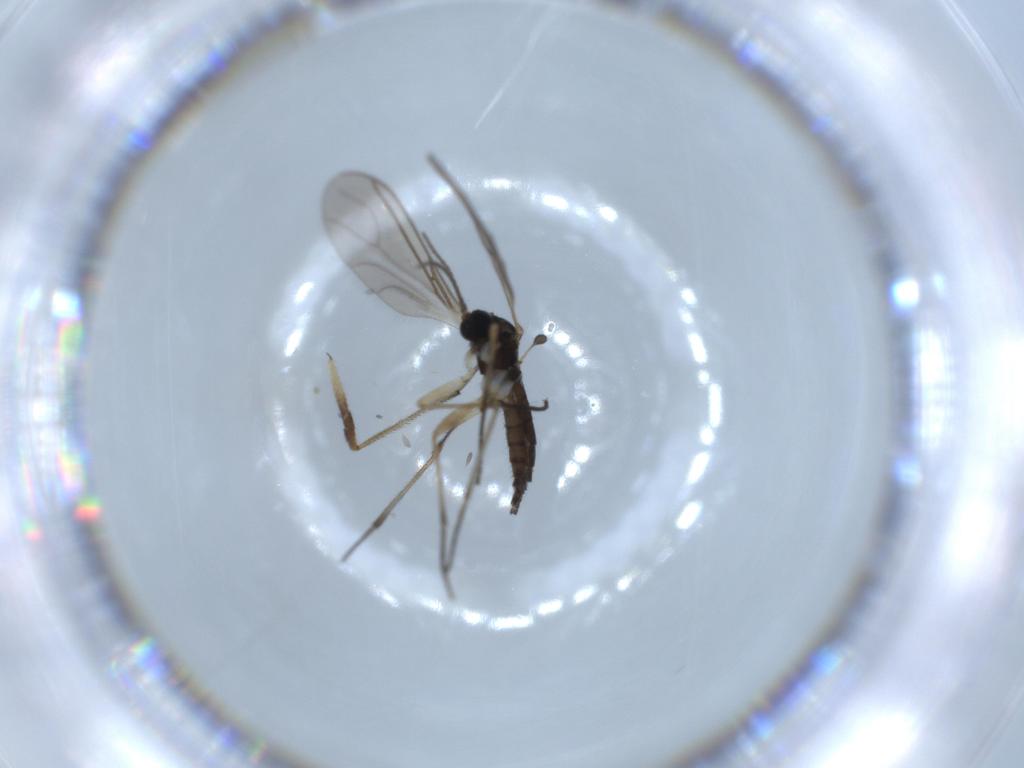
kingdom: Animalia
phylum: Arthropoda
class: Insecta
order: Diptera
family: Sciaridae
